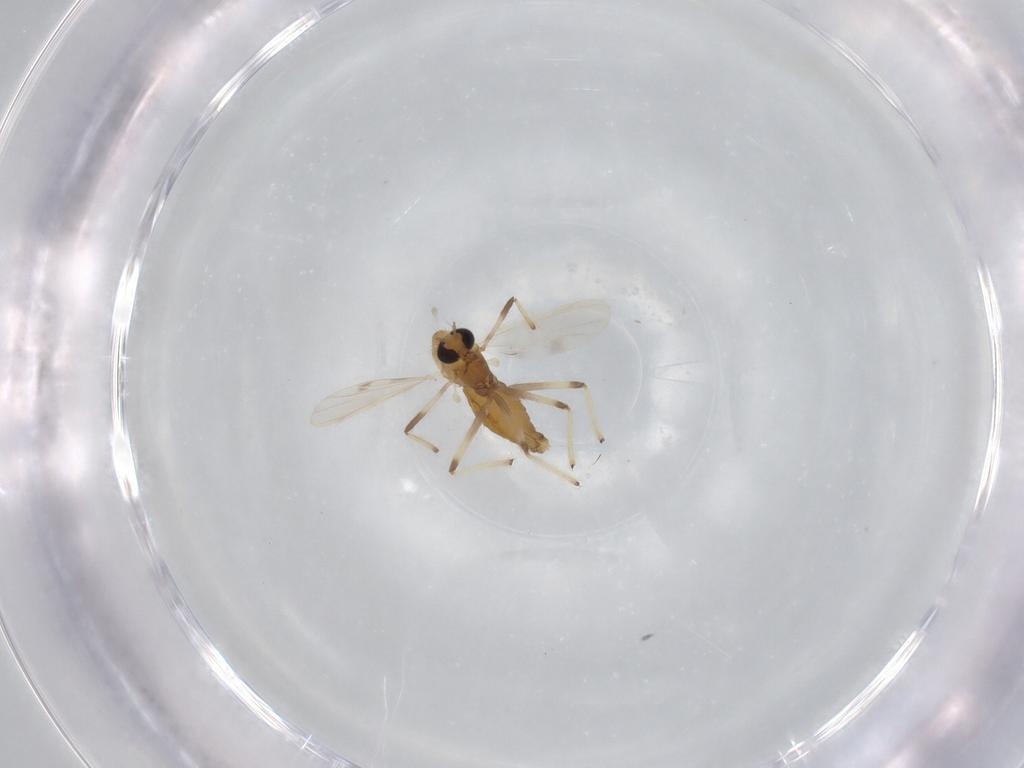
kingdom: Animalia
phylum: Arthropoda
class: Insecta
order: Diptera
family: Chironomidae
